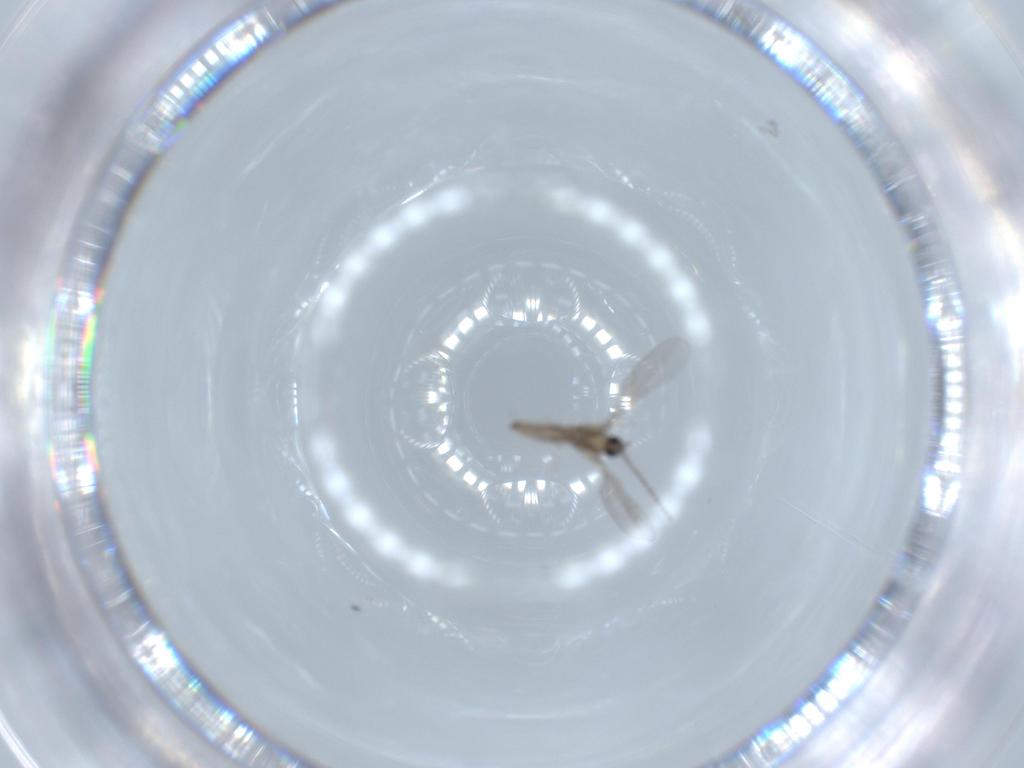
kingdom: Animalia
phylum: Arthropoda
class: Insecta
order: Diptera
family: Cecidomyiidae
